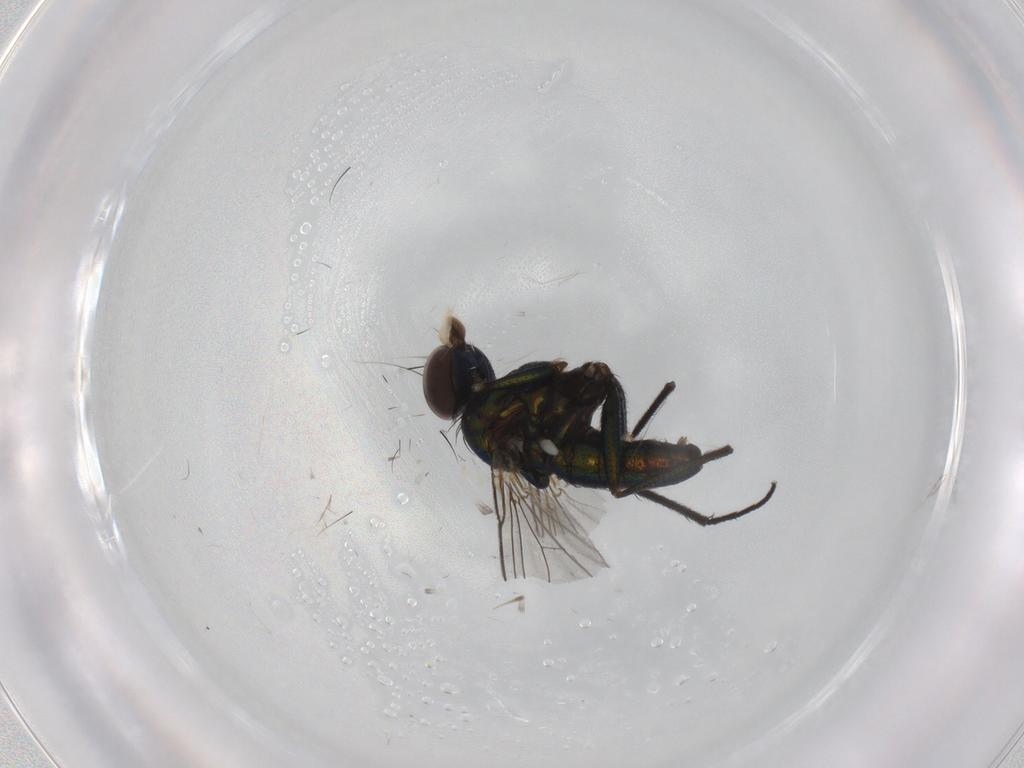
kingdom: Animalia
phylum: Arthropoda
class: Insecta
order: Diptera
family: Dolichopodidae
